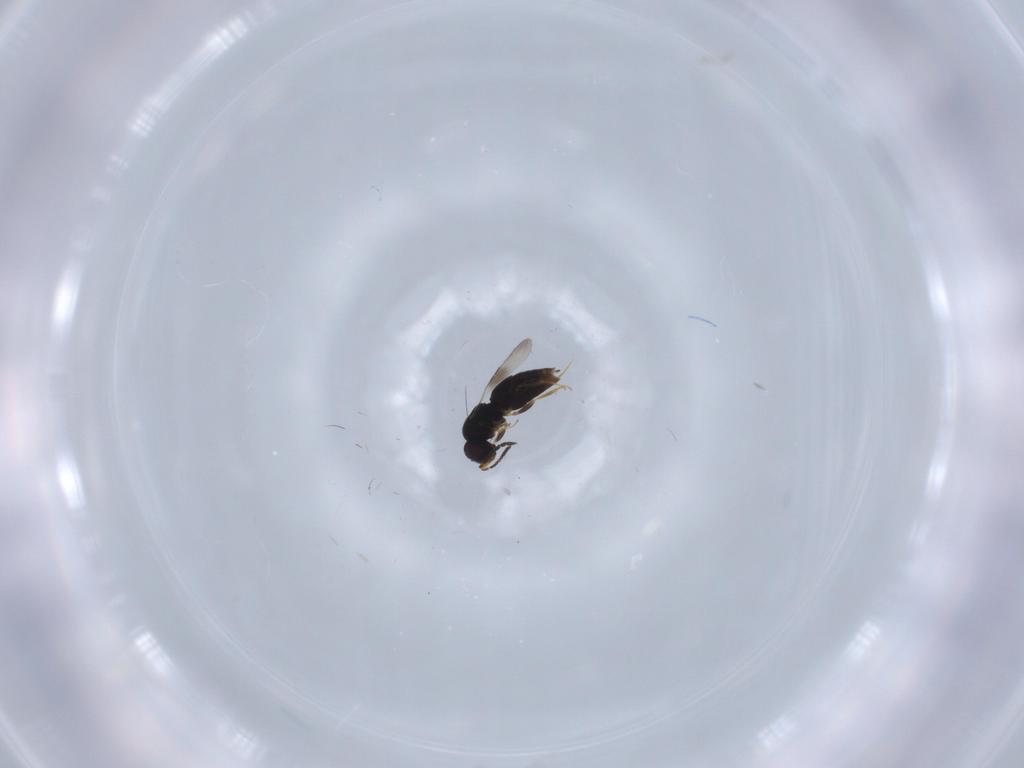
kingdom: Animalia
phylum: Arthropoda
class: Insecta
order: Hymenoptera
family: Ceraphronidae
